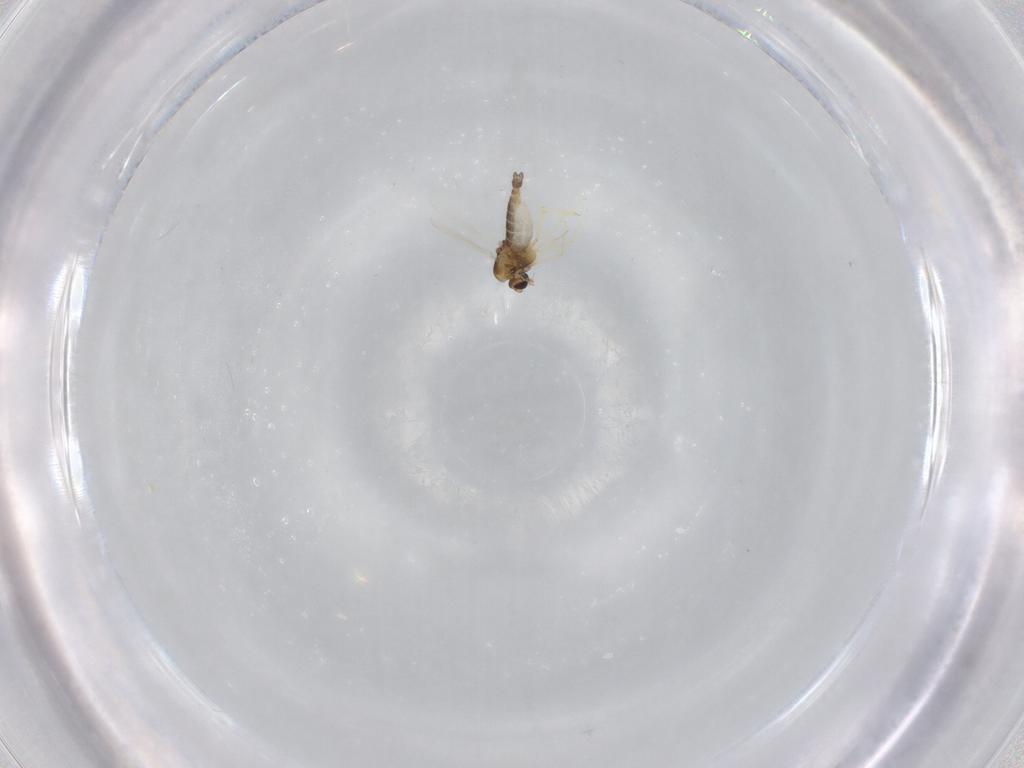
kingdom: Animalia
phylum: Arthropoda
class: Insecta
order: Diptera
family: Chironomidae
